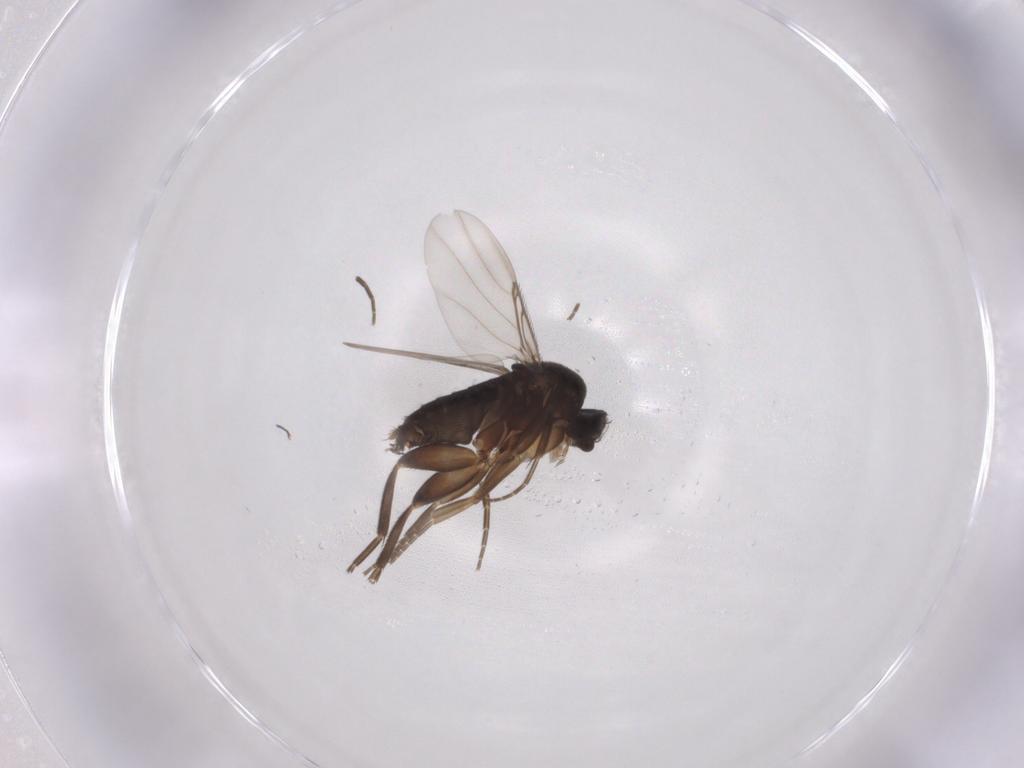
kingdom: Animalia
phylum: Arthropoda
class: Insecta
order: Diptera
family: Phoridae
